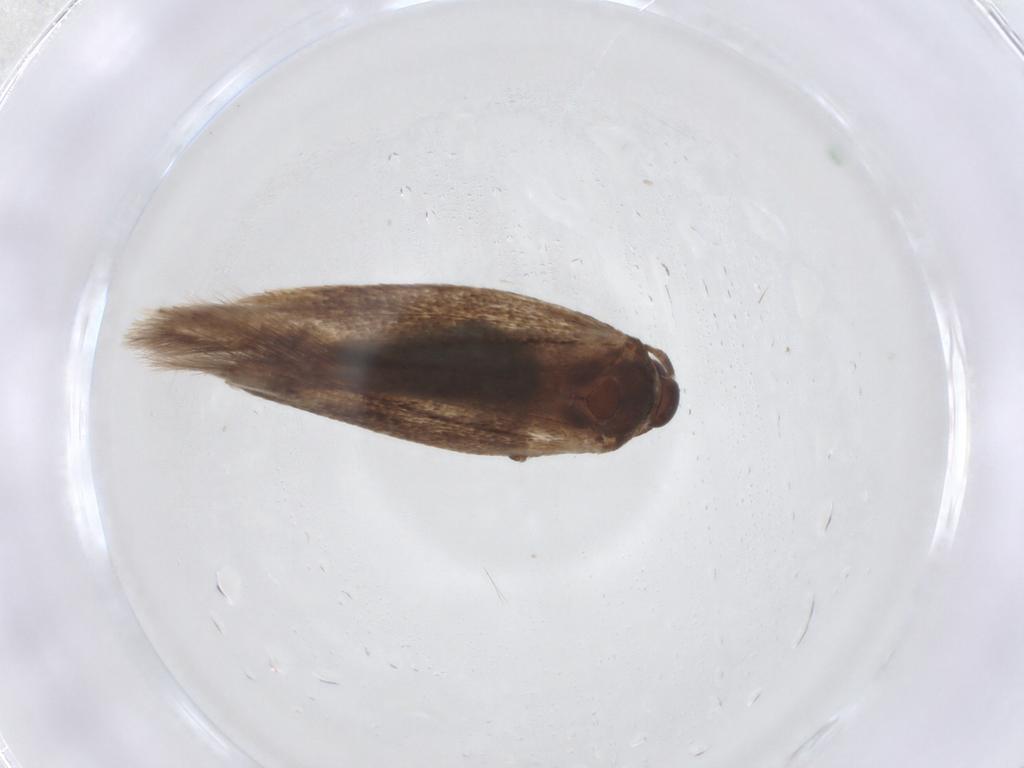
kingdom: Animalia
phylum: Arthropoda
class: Insecta
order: Lepidoptera
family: Cosmopterigidae
